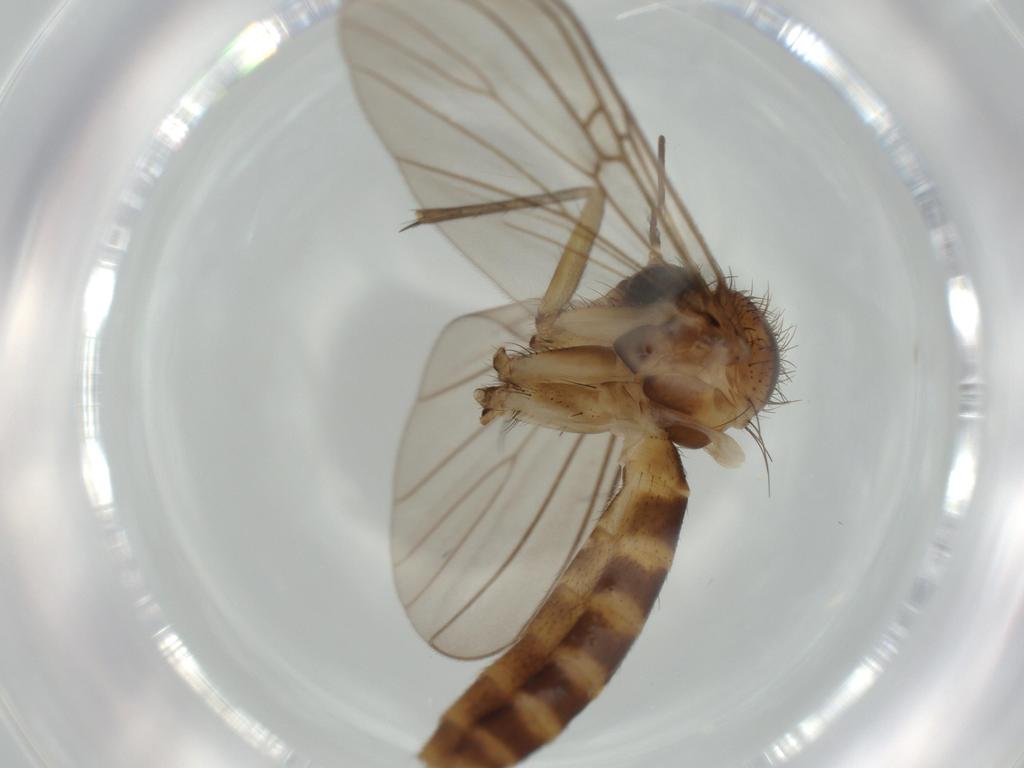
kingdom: Animalia
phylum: Arthropoda
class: Insecta
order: Diptera
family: Mycetophilidae
